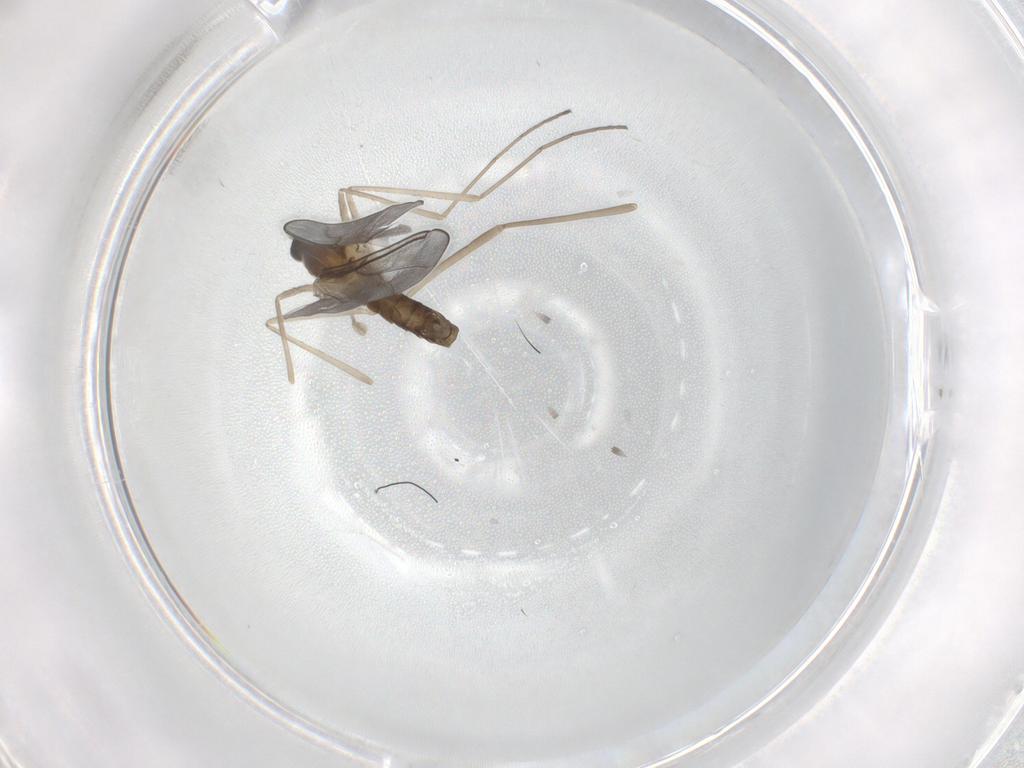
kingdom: Animalia
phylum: Arthropoda
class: Insecta
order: Diptera
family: Cecidomyiidae
